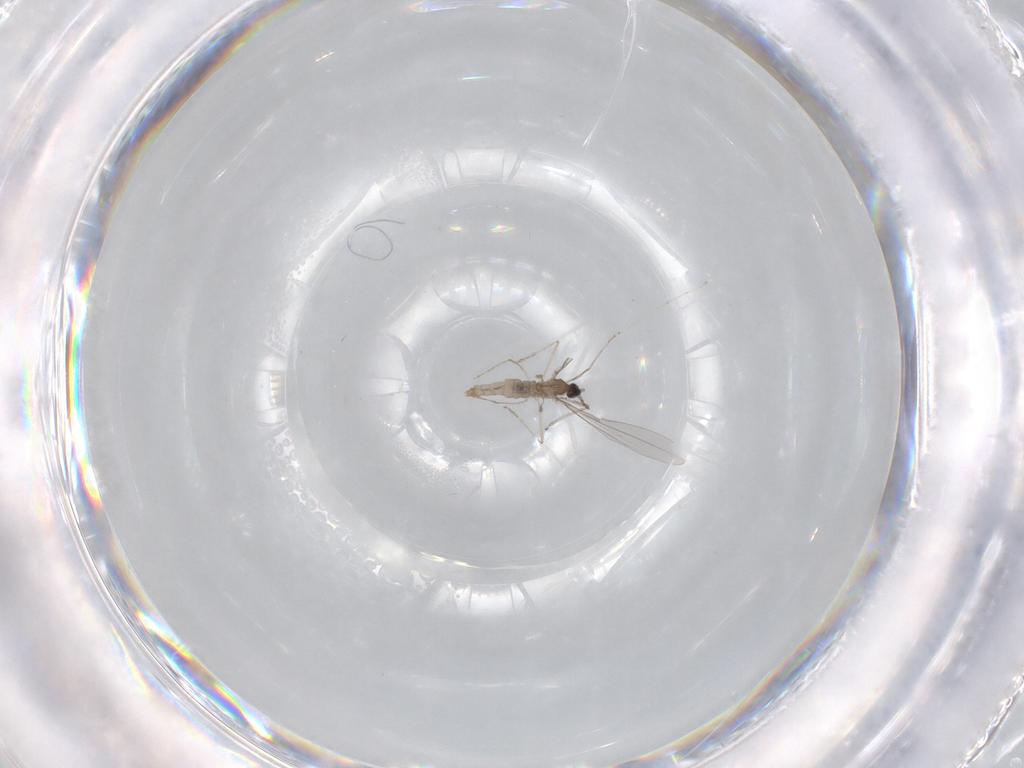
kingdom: Animalia
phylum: Arthropoda
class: Insecta
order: Diptera
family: Cecidomyiidae
